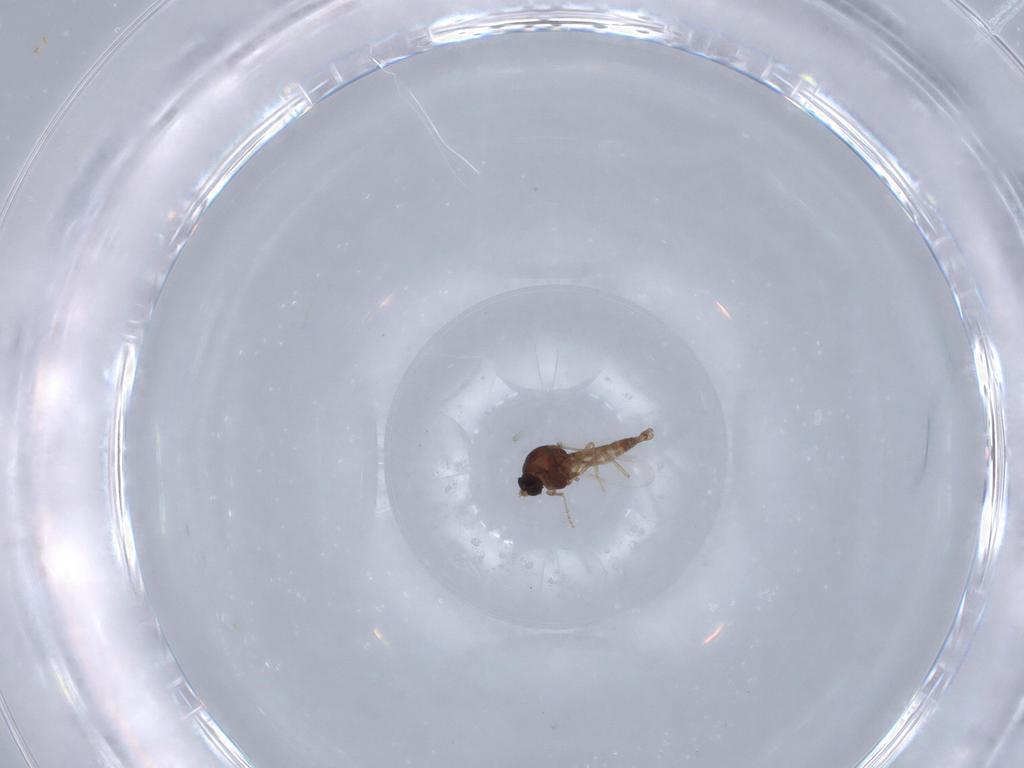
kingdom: Animalia
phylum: Arthropoda
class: Insecta
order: Diptera
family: Ceratopogonidae
